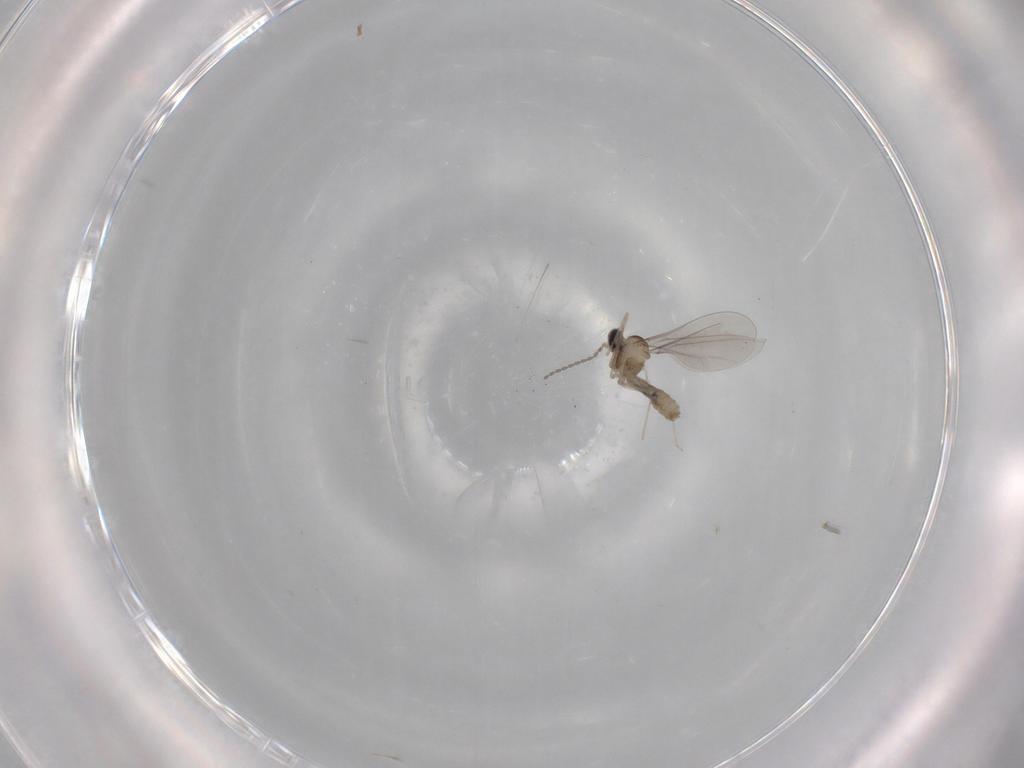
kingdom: Animalia
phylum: Arthropoda
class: Insecta
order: Diptera
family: Cecidomyiidae
